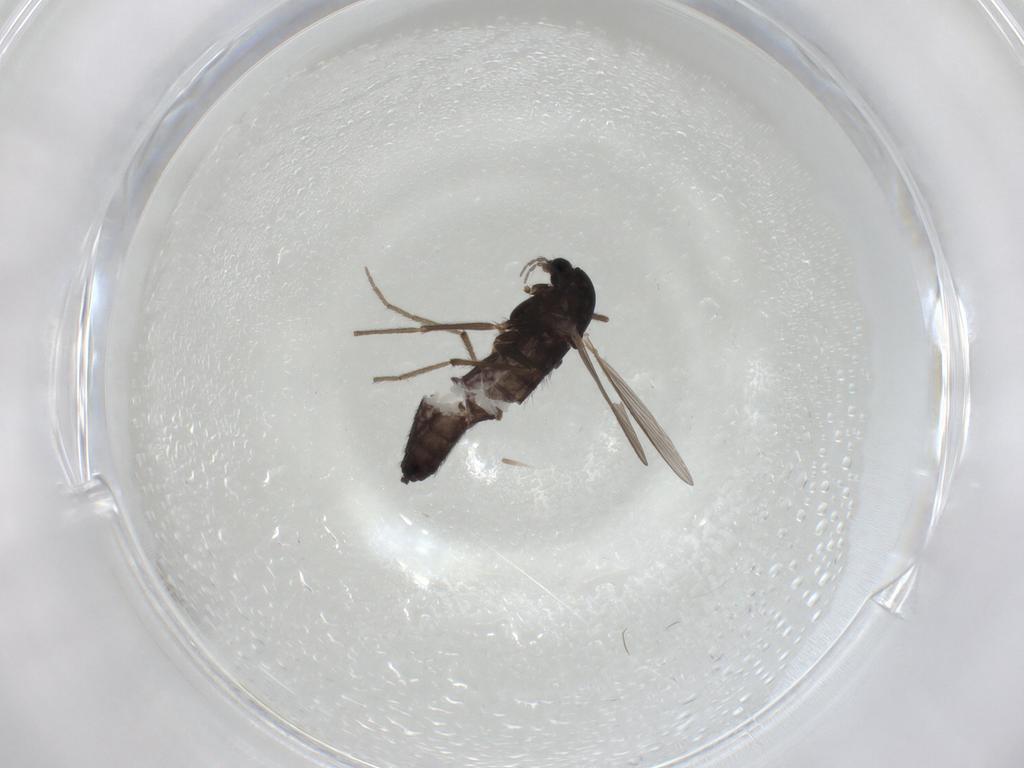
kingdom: Animalia
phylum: Arthropoda
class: Insecta
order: Diptera
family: Chironomidae
